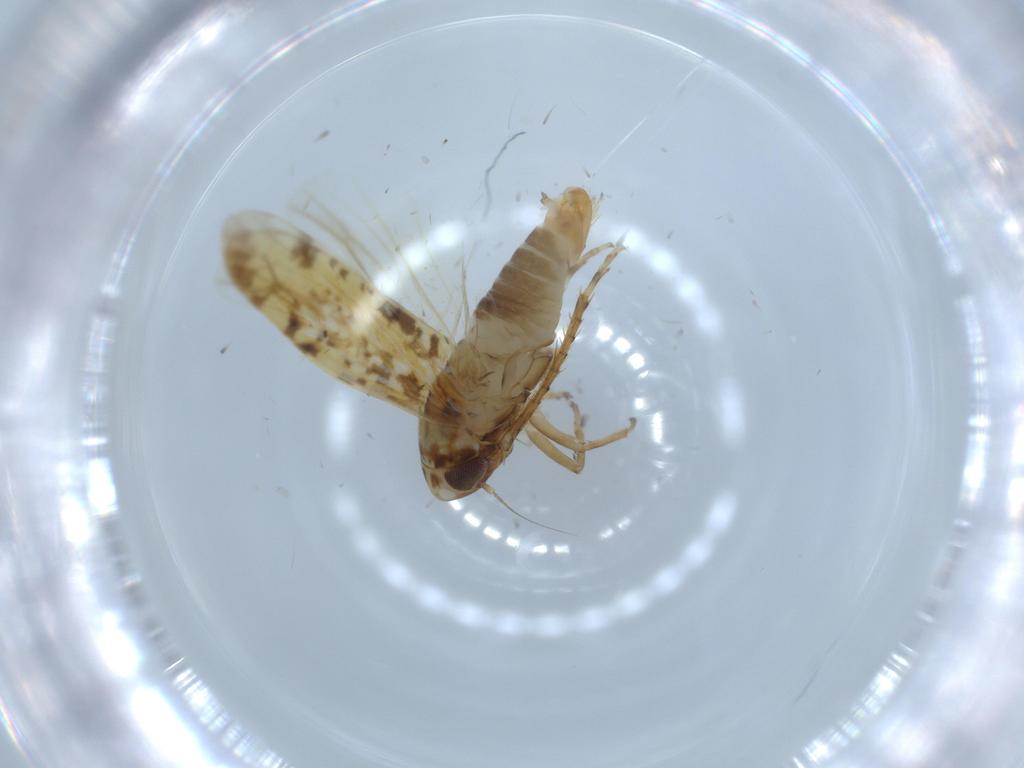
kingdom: Animalia
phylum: Arthropoda
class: Insecta
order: Hemiptera
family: Cicadellidae
